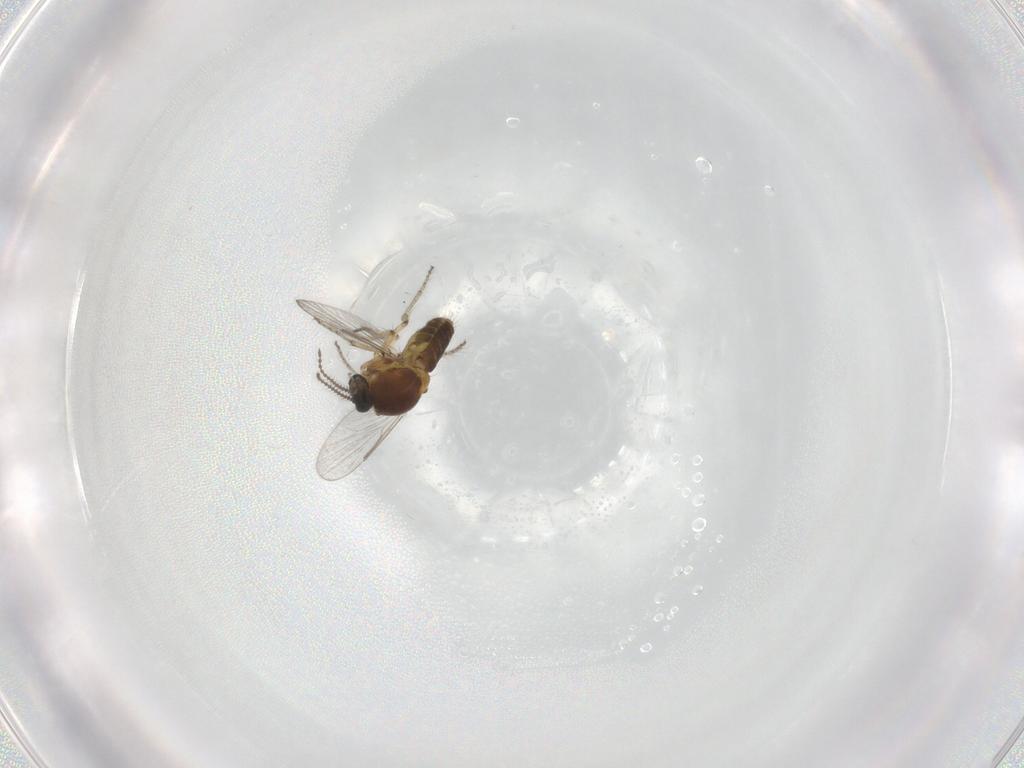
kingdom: Animalia
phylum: Arthropoda
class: Insecta
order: Diptera
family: Ceratopogonidae
